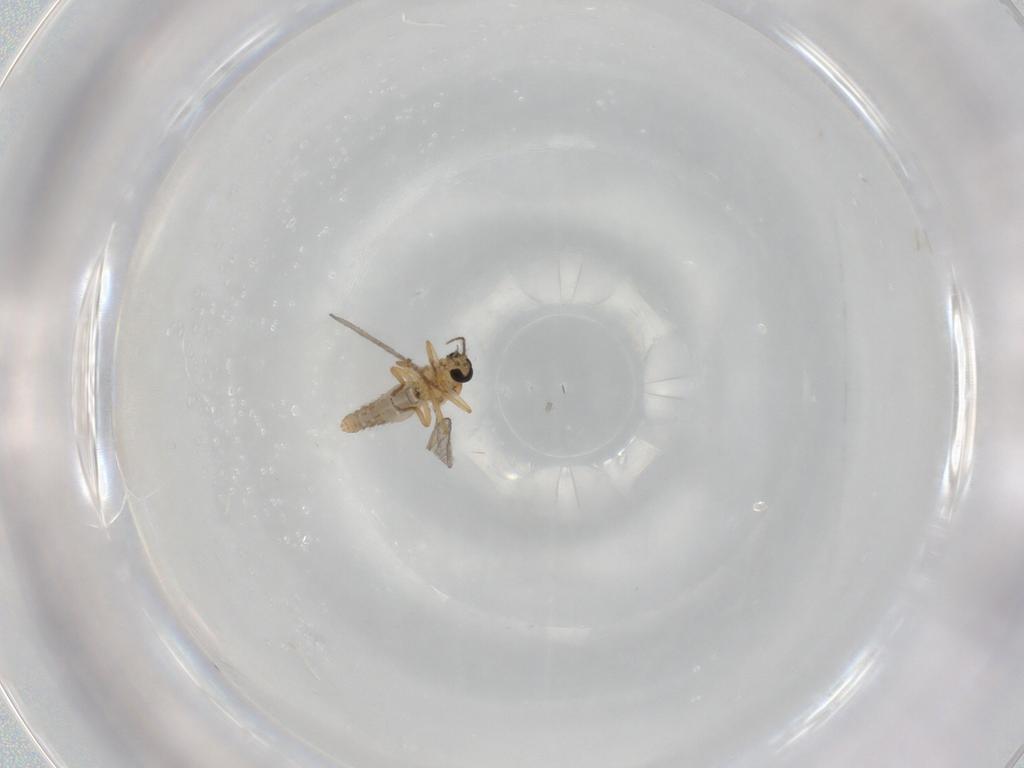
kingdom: Animalia
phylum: Arthropoda
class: Insecta
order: Diptera
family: Ceratopogonidae
